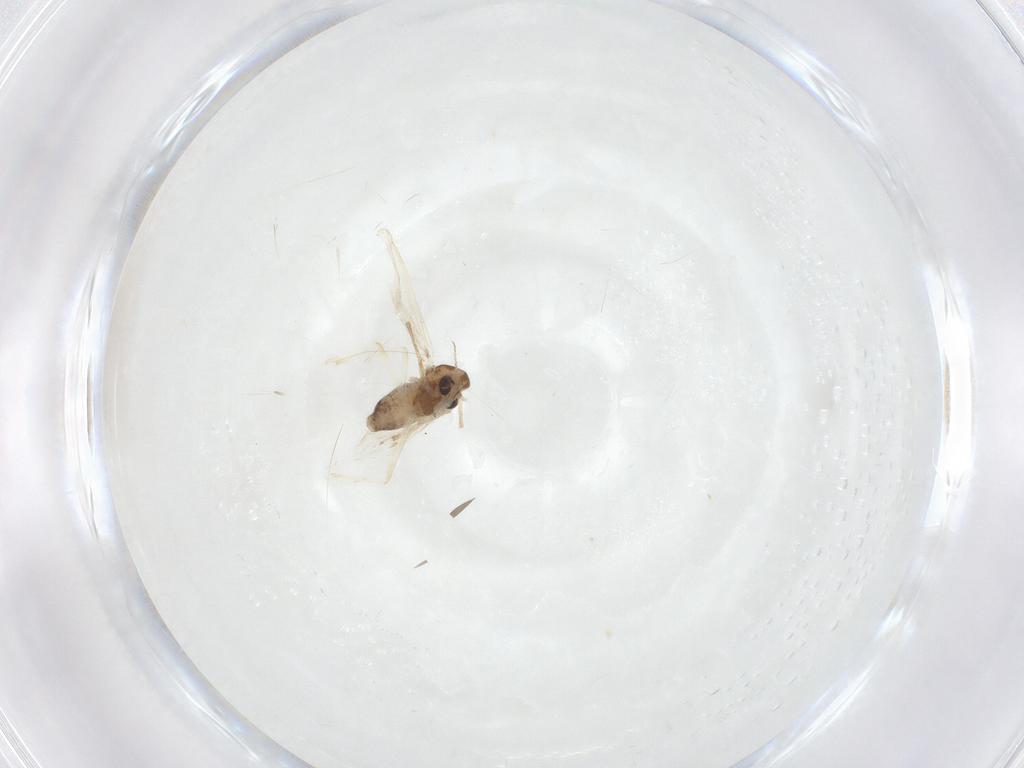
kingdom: Animalia
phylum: Arthropoda
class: Insecta
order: Diptera
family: Chironomidae
